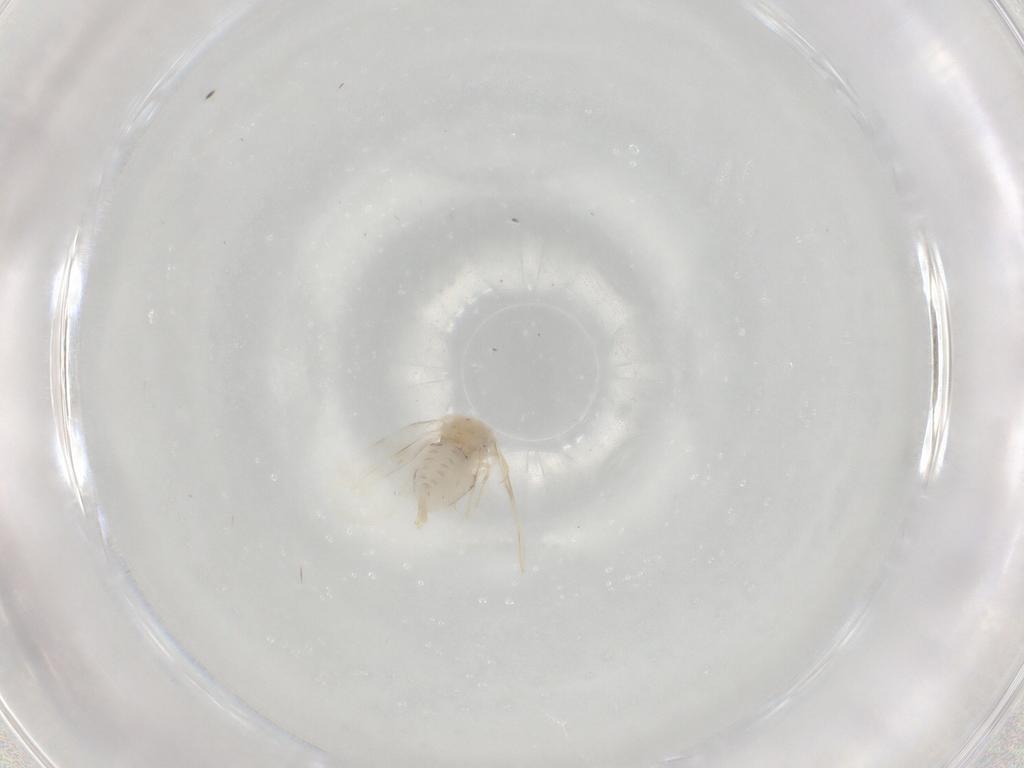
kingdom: Animalia
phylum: Arthropoda
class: Insecta
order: Hemiptera
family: Aleyrodidae
